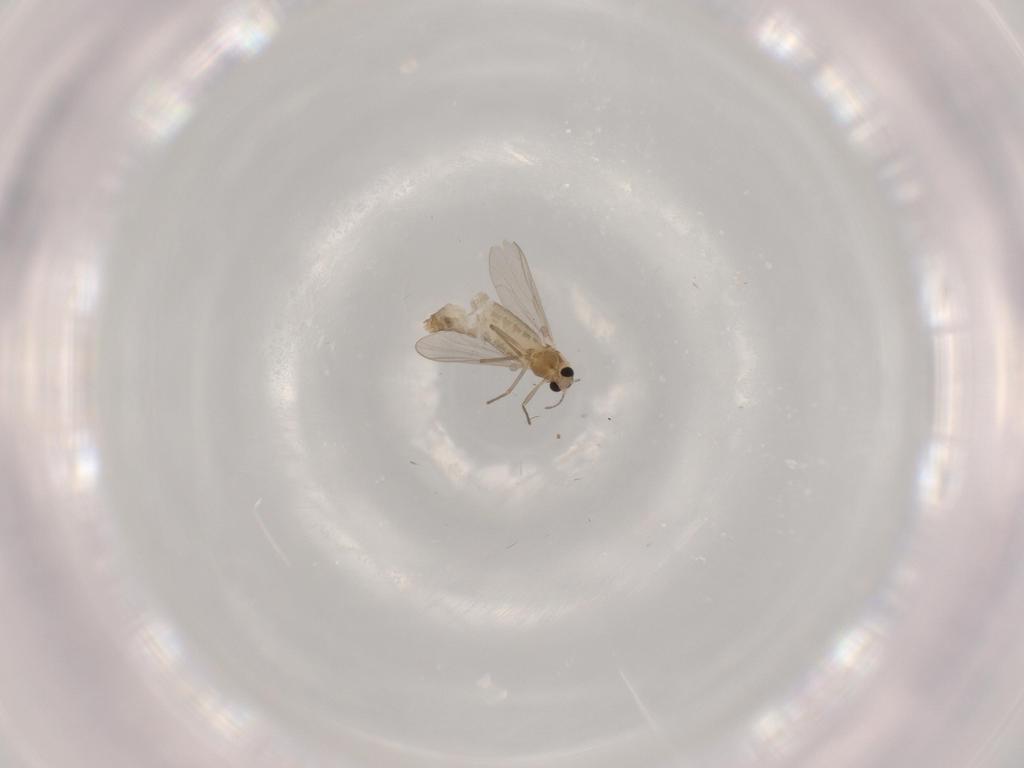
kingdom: Animalia
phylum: Arthropoda
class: Insecta
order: Diptera
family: Chironomidae
